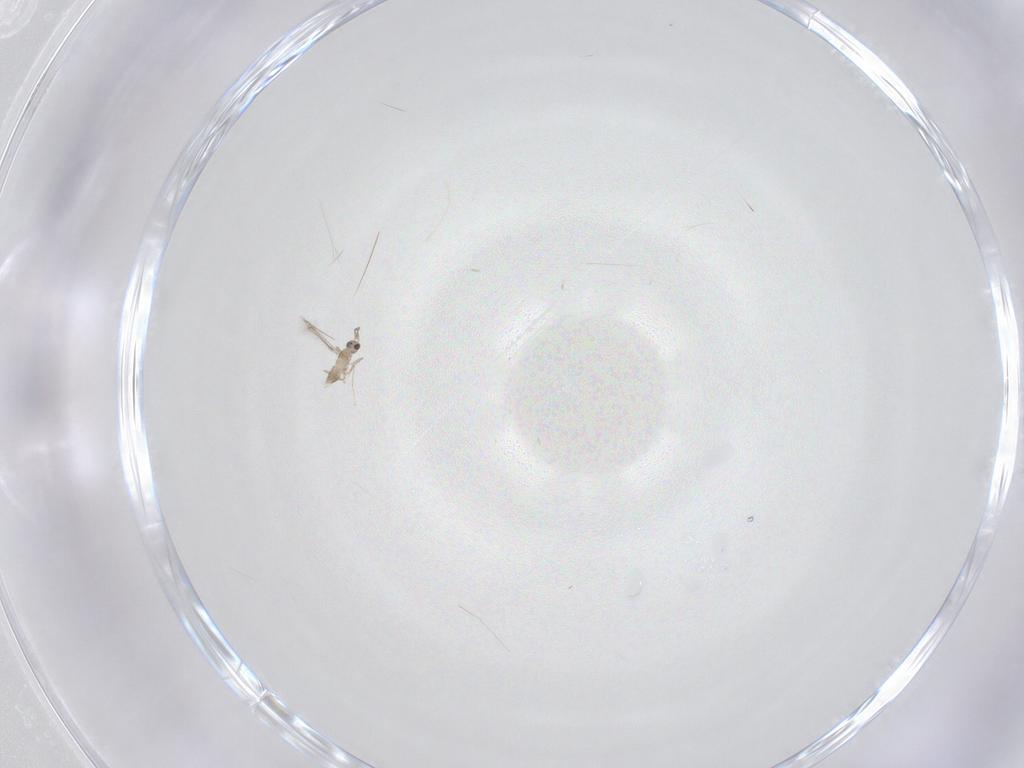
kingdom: Animalia
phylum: Arthropoda
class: Insecta
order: Hymenoptera
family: Mymaridae
